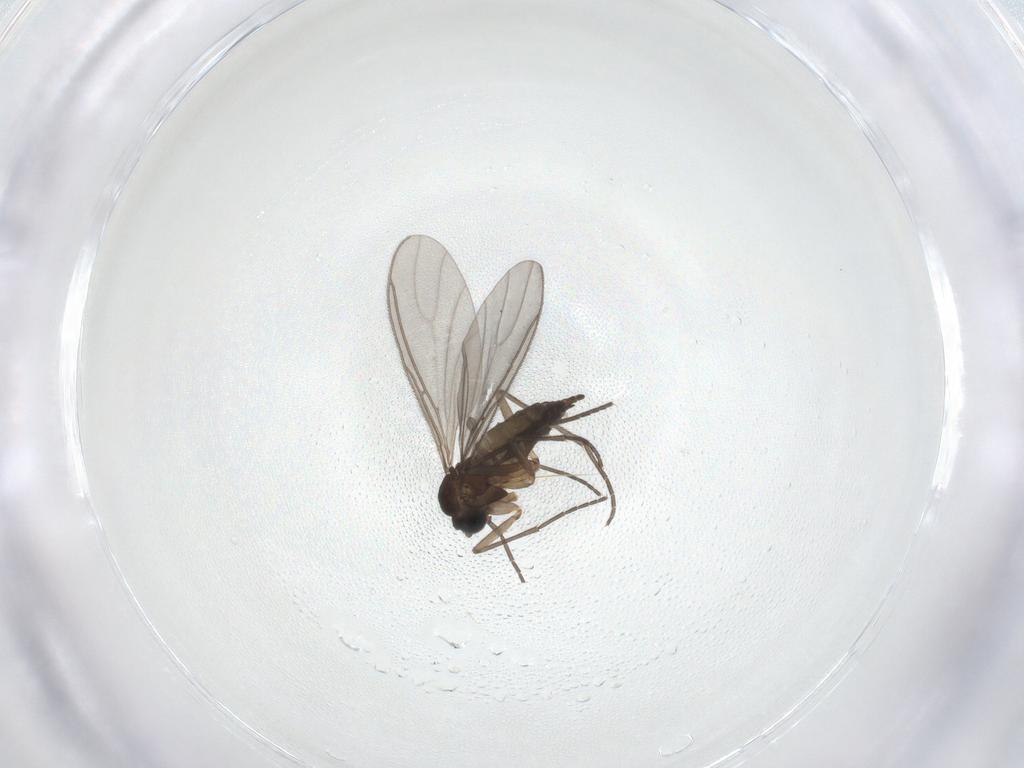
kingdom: Animalia
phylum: Arthropoda
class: Insecta
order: Diptera
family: Sciaridae
